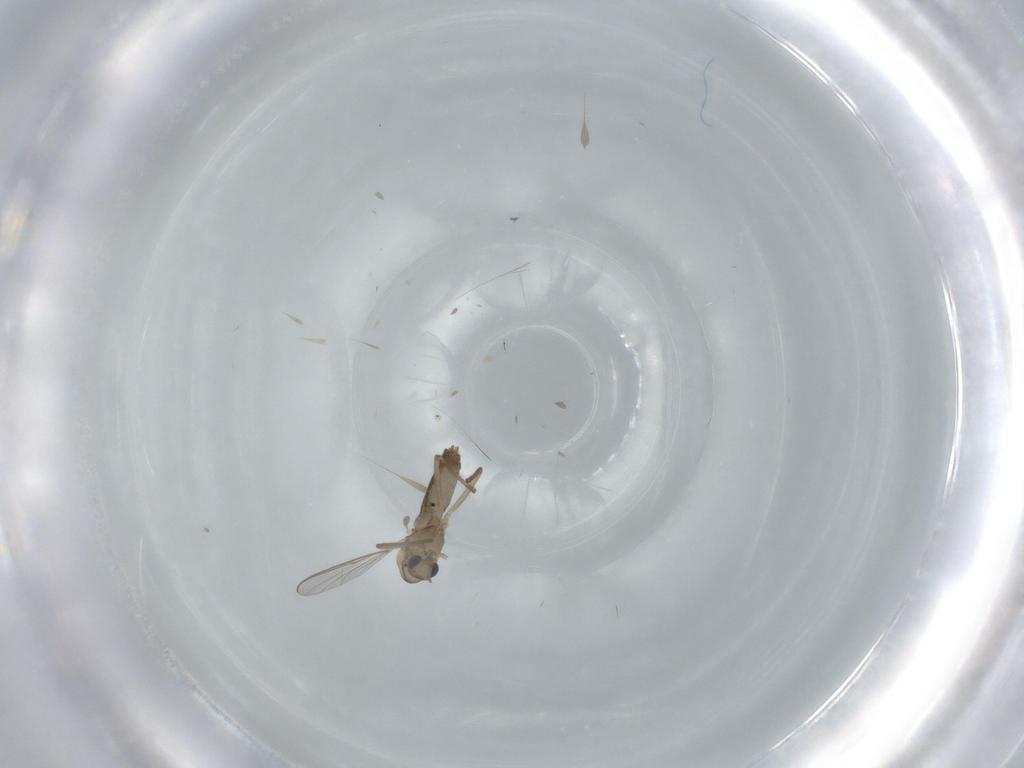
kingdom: Animalia
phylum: Arthropoda
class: Insecta
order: Diptera
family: Chironomidae
